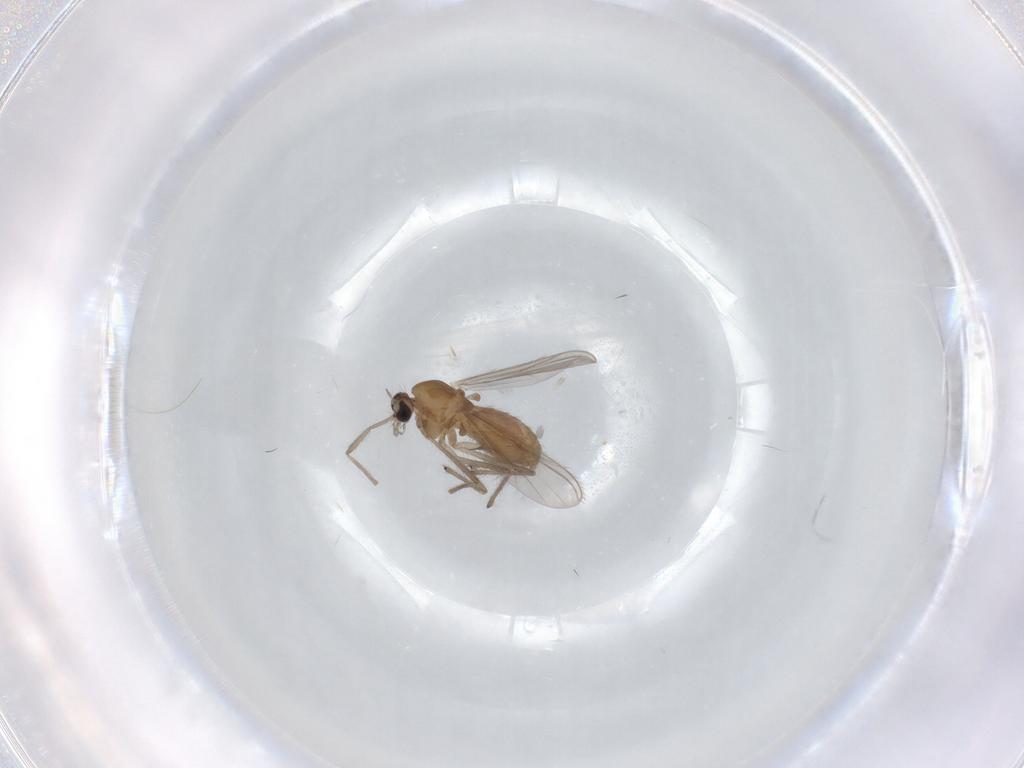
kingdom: Animalia
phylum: Arthropoda
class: Insecta
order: Diptera
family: Chironomidae
